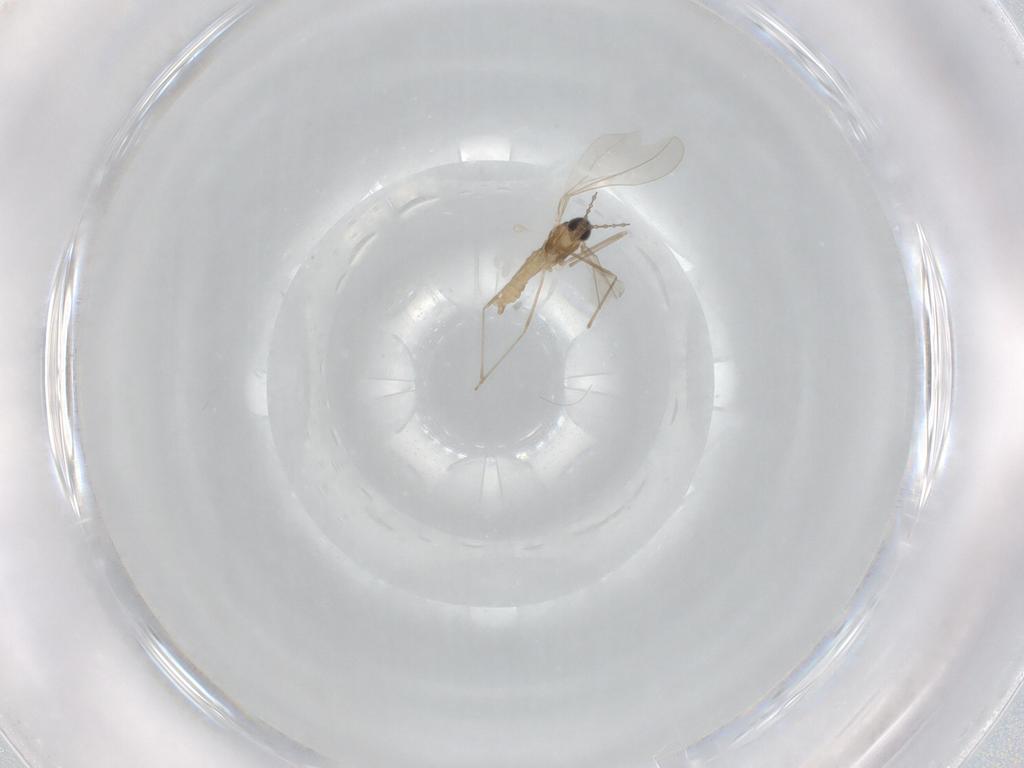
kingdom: Animalia
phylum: Arthropoda
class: Insecta
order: Diptera
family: Cecidomyiidae
